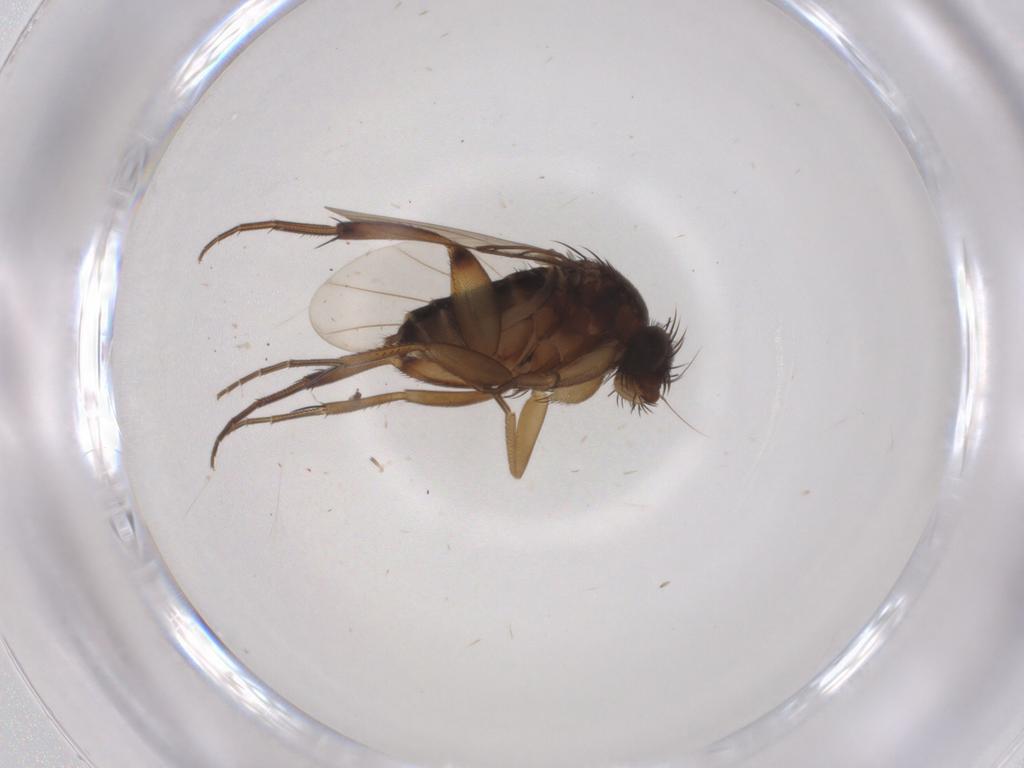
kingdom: Animalia
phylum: Arthropoda
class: Insecta
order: Diptera
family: Phoridae
